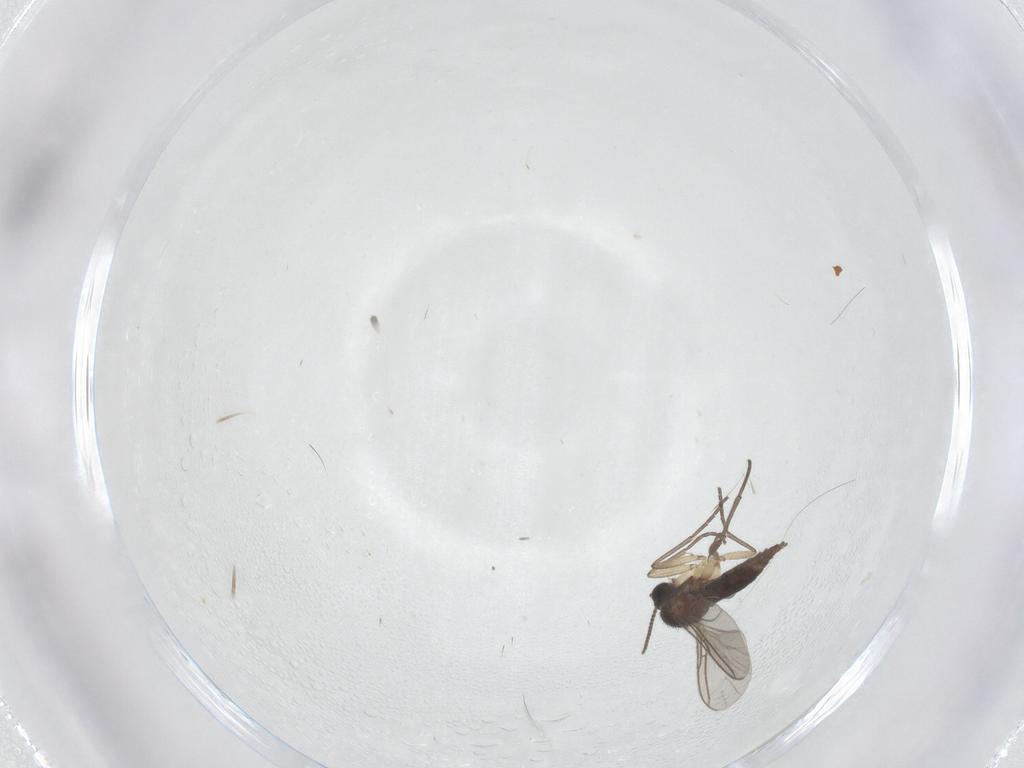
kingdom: Animalia
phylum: Arthropoda
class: Insecta
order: Diptera
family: Sciaridae
